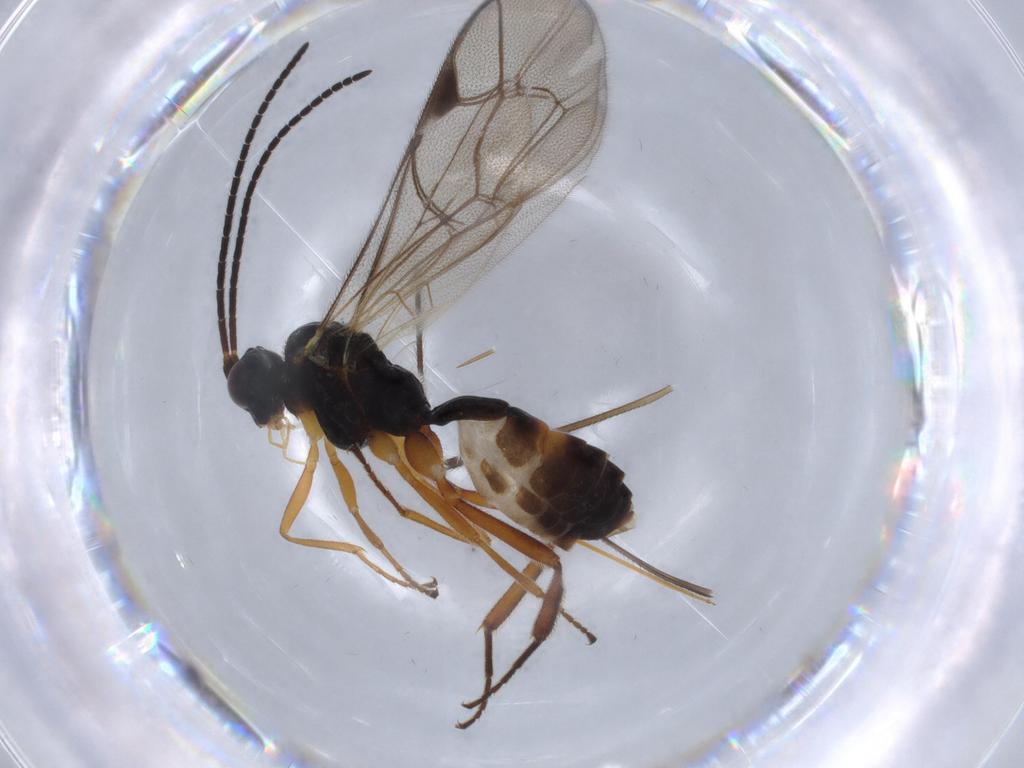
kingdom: Animalia
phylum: Arthropoda
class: Insecta
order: Hymenoptera
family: Ichneumonidae
